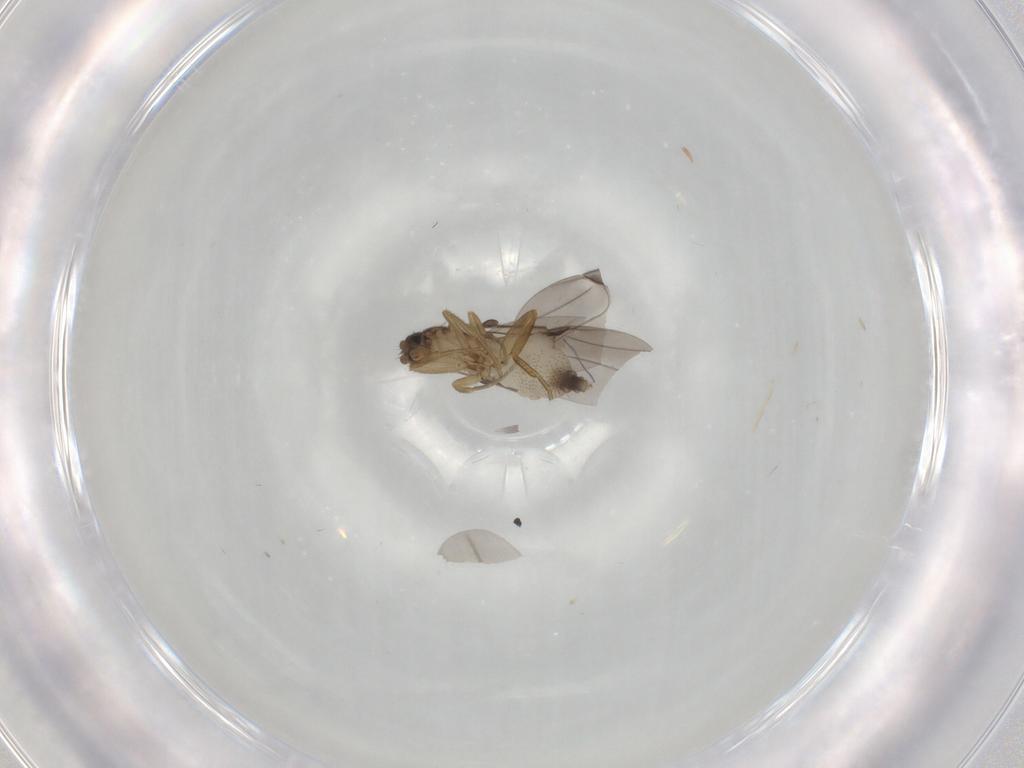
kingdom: Animalia
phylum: Arthropoda
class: Insecta
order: Diptera
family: Phoridae
